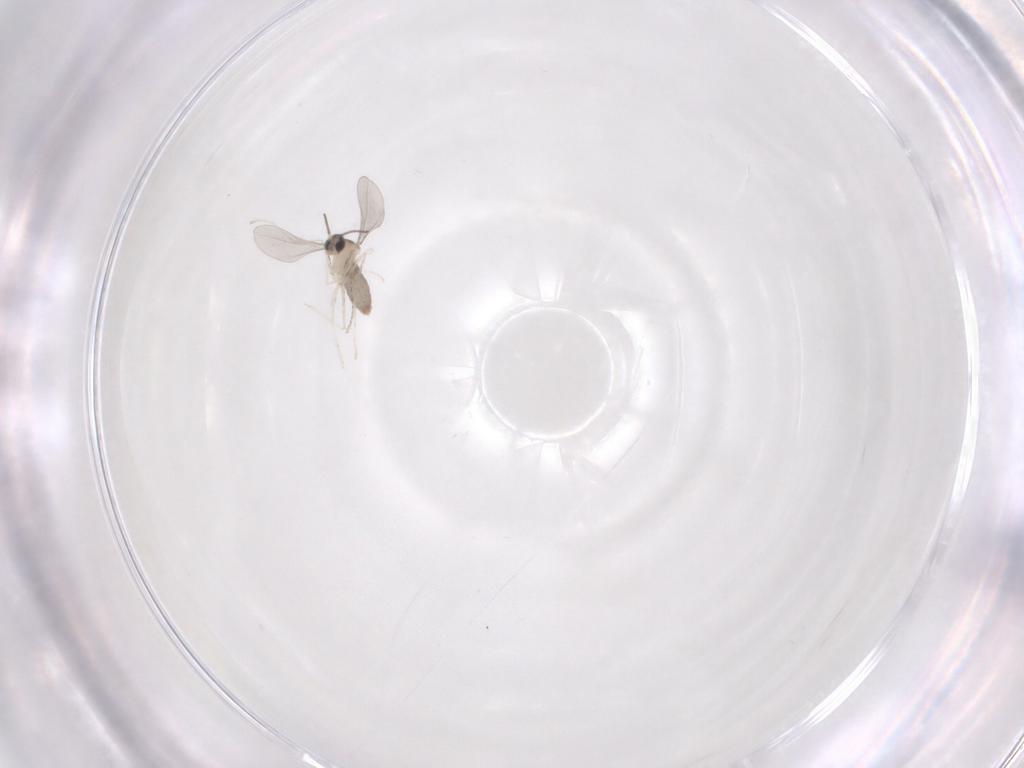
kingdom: Animalia
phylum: Arthropoda
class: Insecta
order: Diptera
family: Cecidomyiidae
